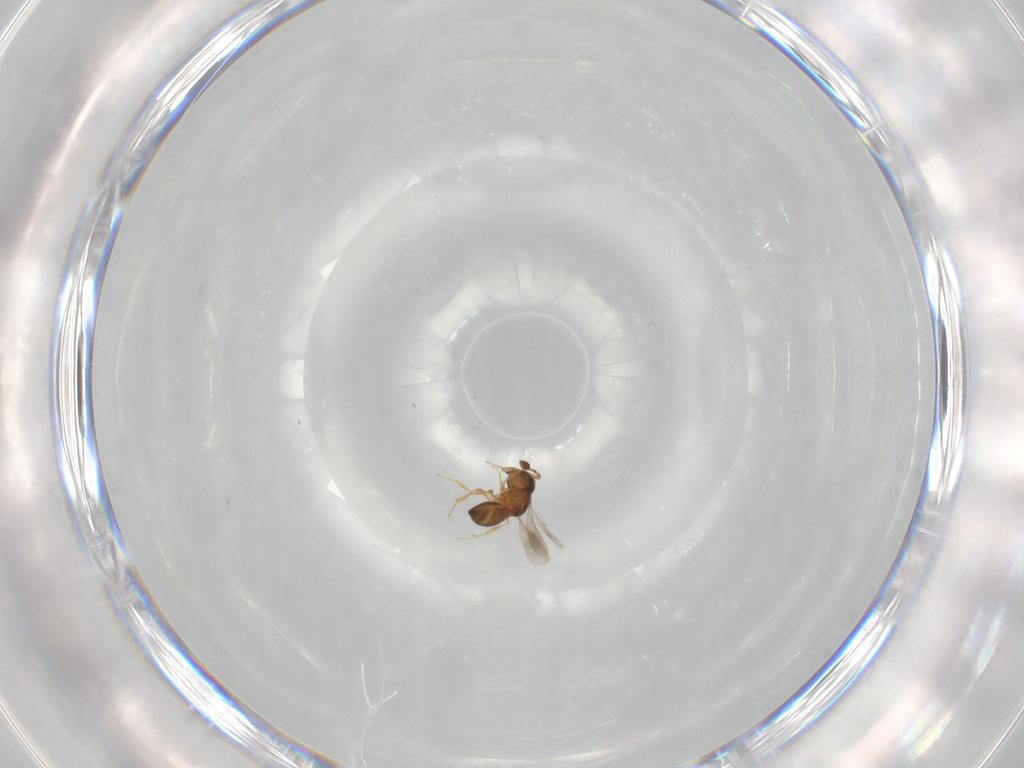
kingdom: Animalia
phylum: Arthropoda
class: Insecta
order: Hymenoptera
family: Scelionidae
